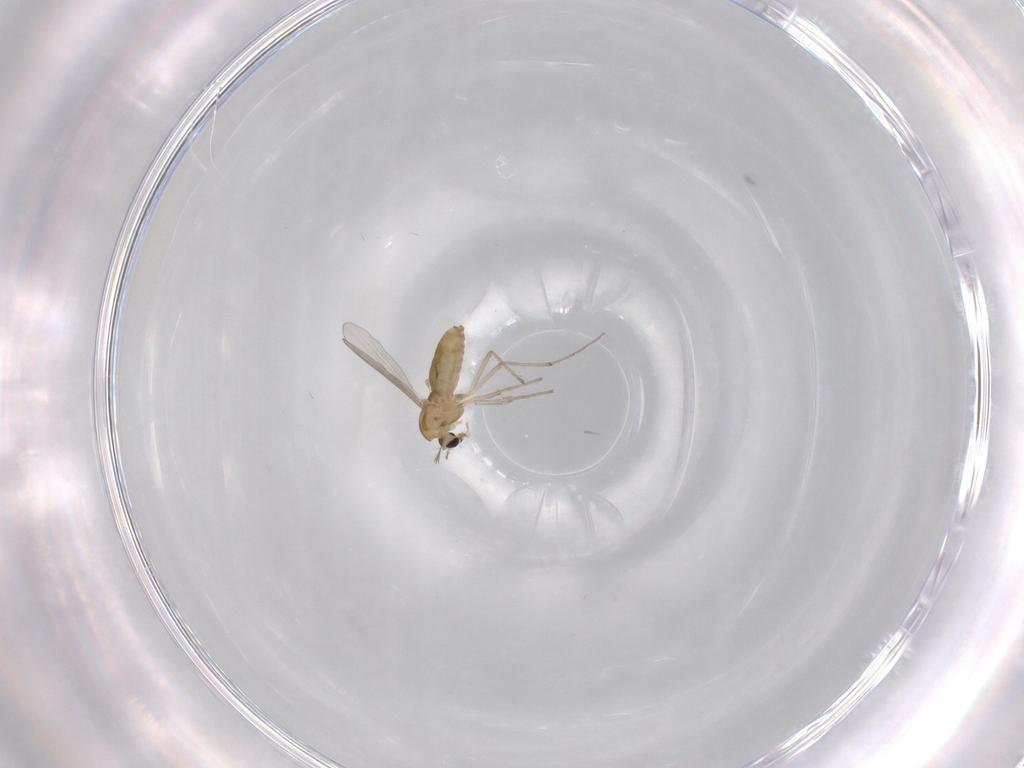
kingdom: Animalia
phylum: Arthropoda
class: Insecta
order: Diptera
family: Chironomidae
